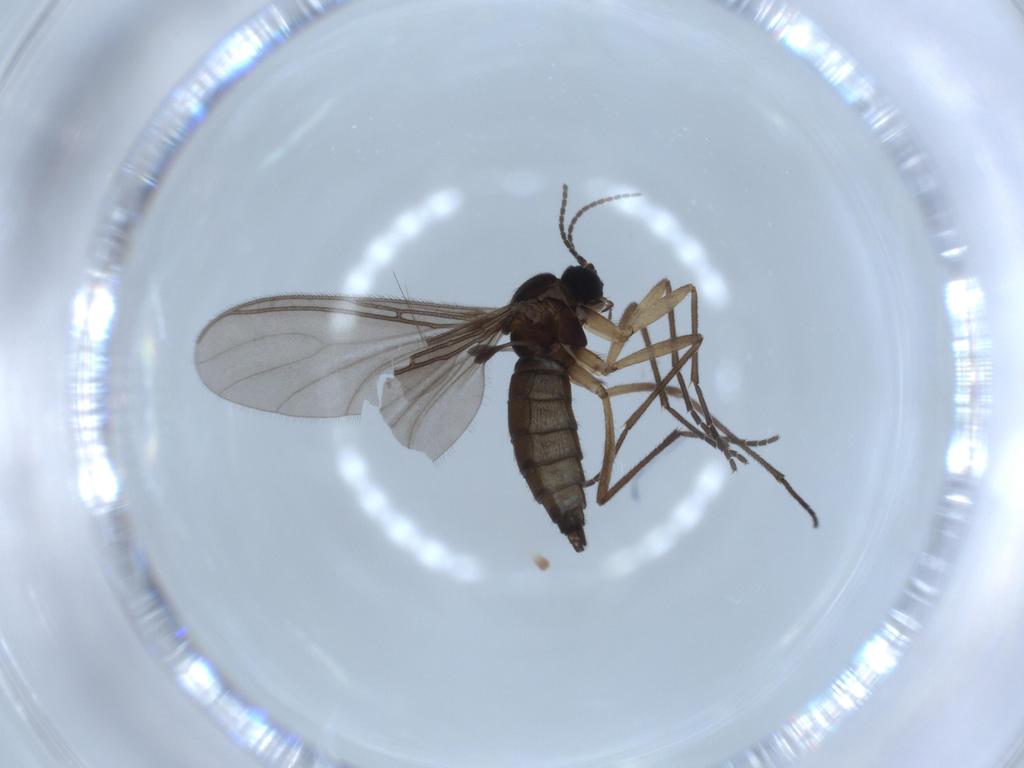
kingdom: Animalia
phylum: Arthropoda
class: Insecta
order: Diptera
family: Sciaridae
